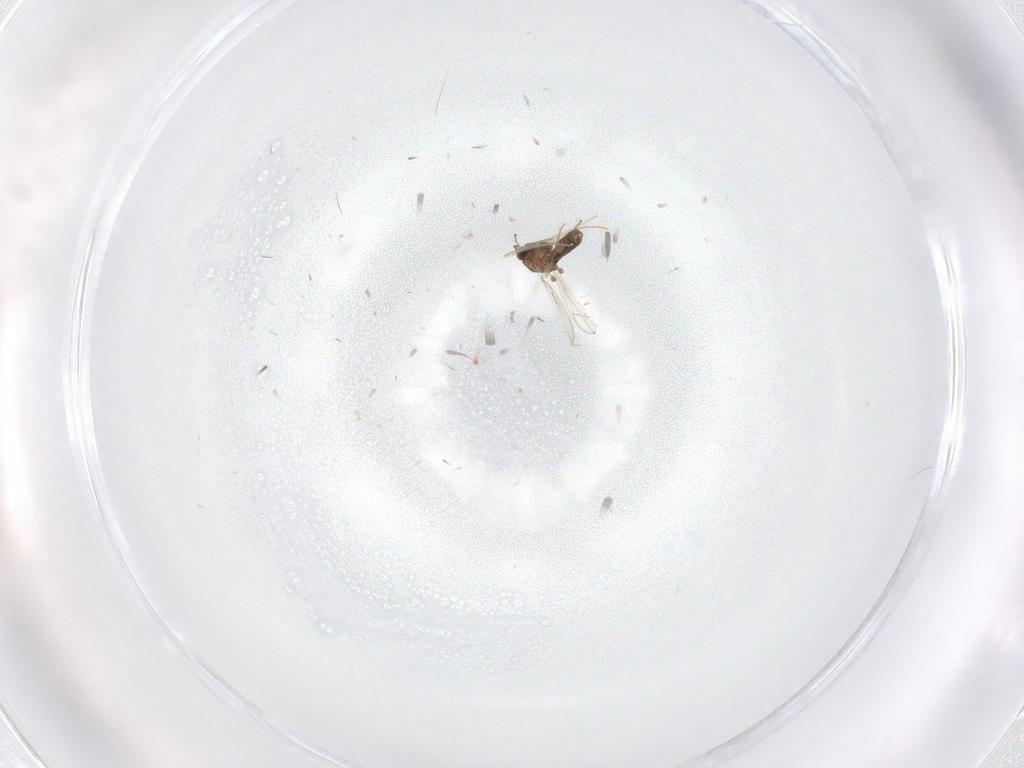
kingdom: Animalia
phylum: Arthropoda
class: Insecta
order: Diptera
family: Chironomidae
